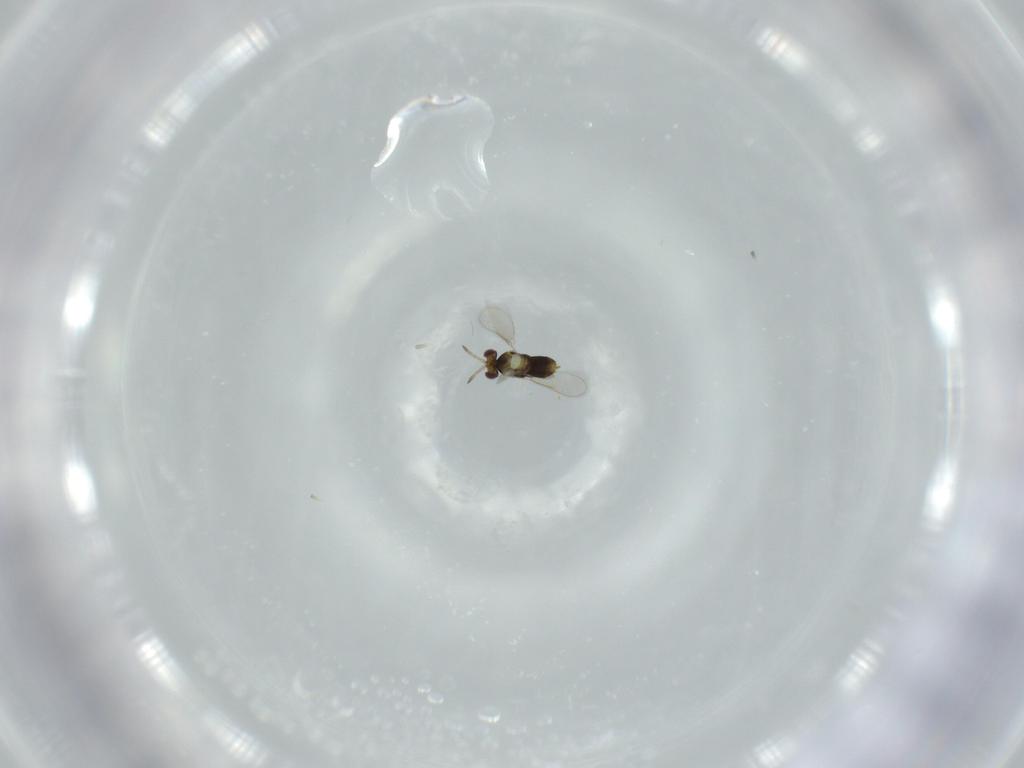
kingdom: Animalia
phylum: Arthropoda
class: Insecta
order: Hymenoptera
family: Aphelinidae
